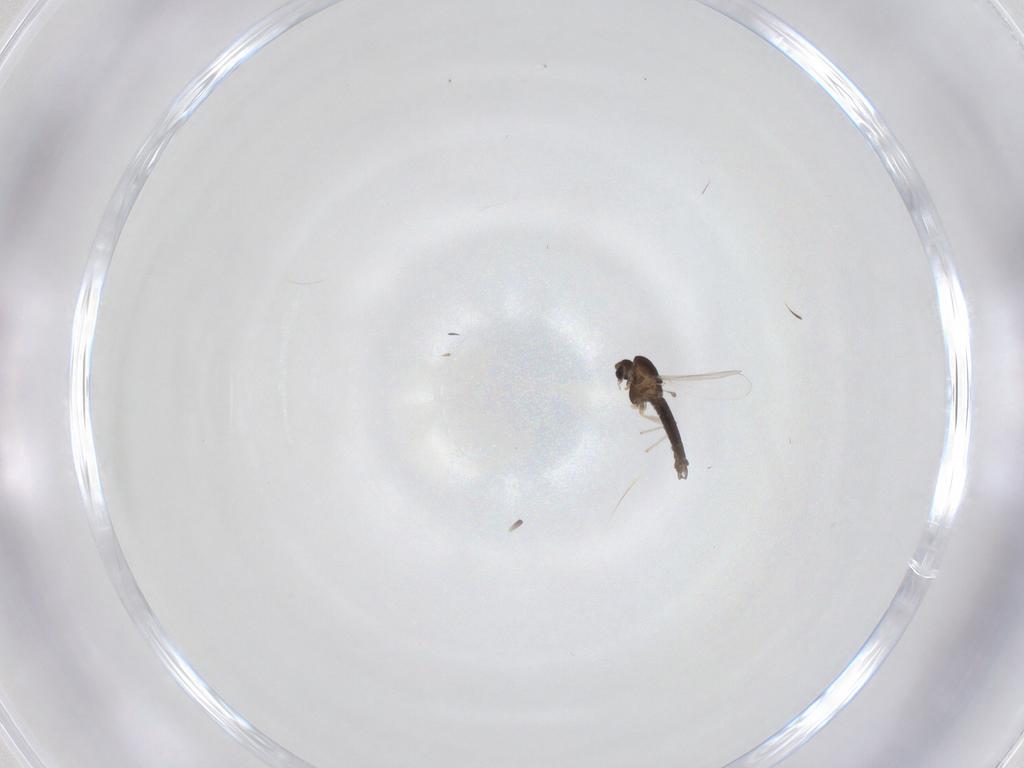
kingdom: Animalia
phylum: Arthropoda
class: Insecta
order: Diptera
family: Chironomidae
